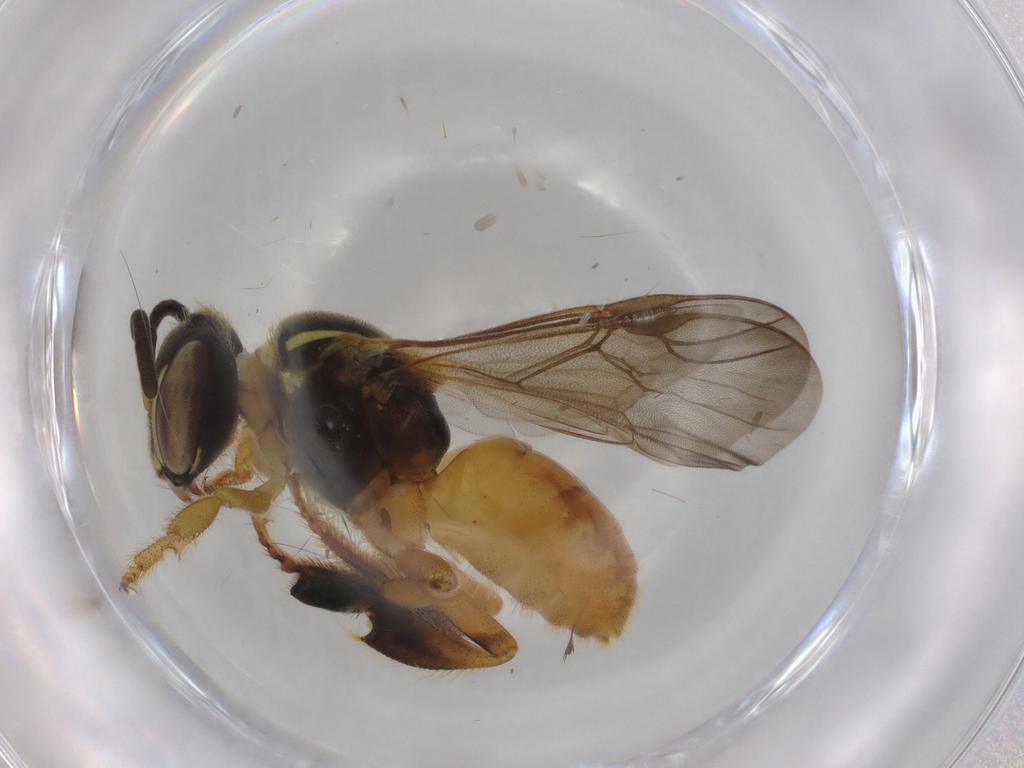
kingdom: Animalia
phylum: Arthropoda
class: Insecta
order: Hymenoptera
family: Apidae
